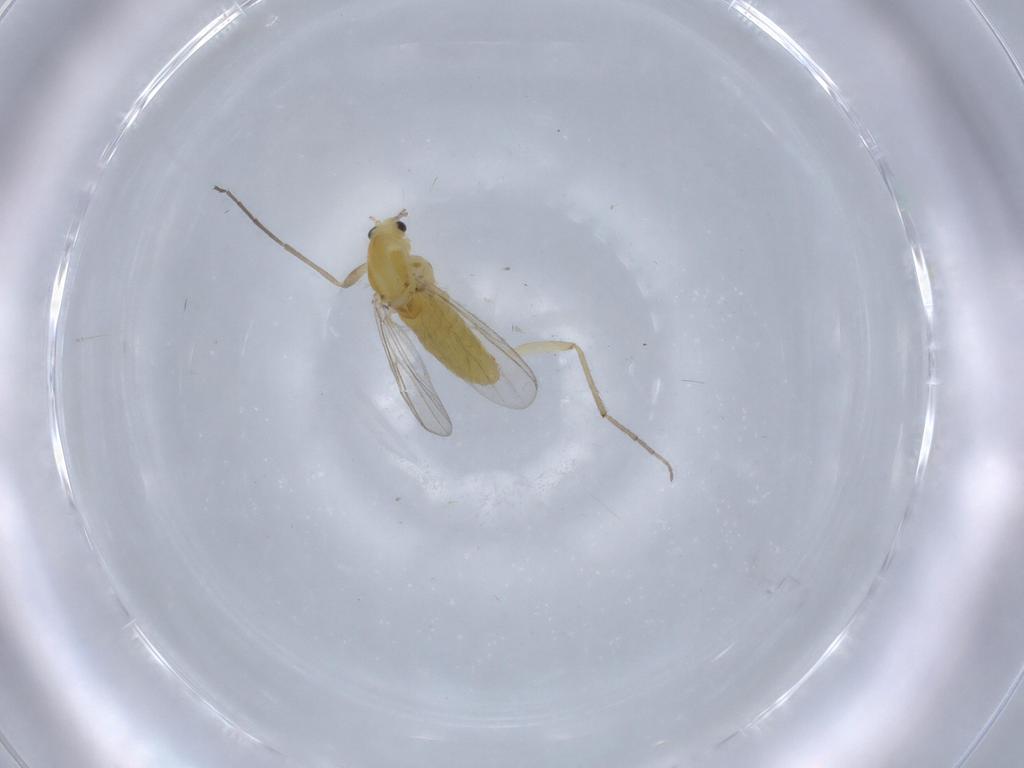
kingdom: Animalia
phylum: Arthropoda
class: Insecta
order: Diptera
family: Chironomidae
